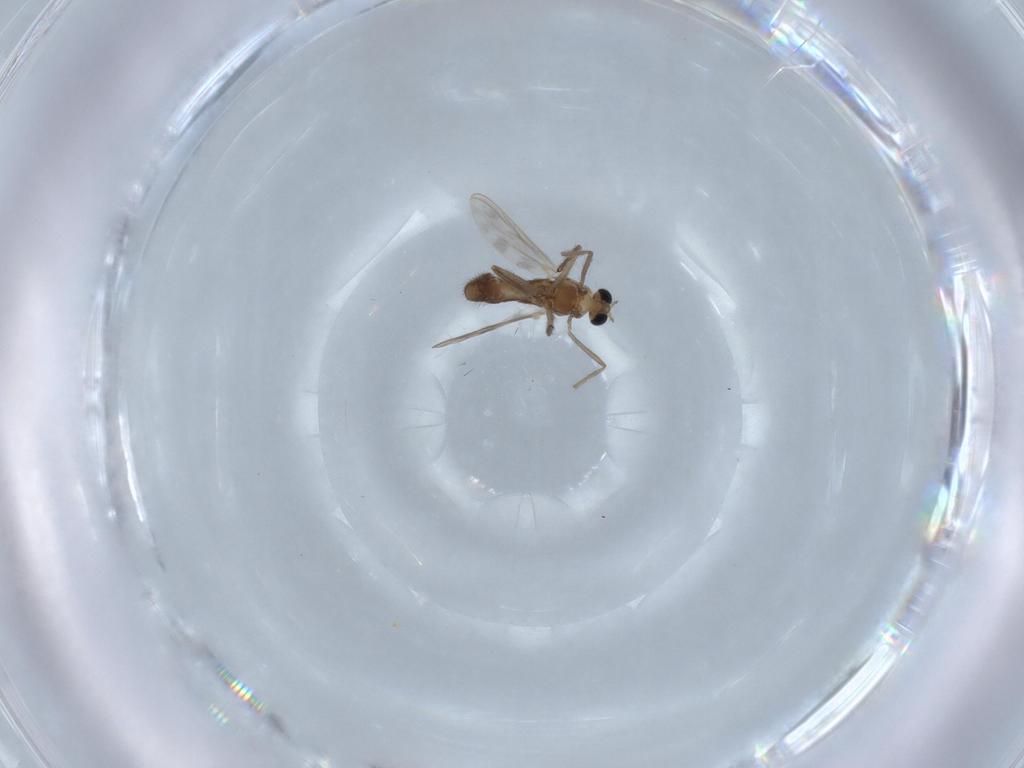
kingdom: Animalia
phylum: Arthropoda
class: Insecta
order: Diptera
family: Chironomidae
